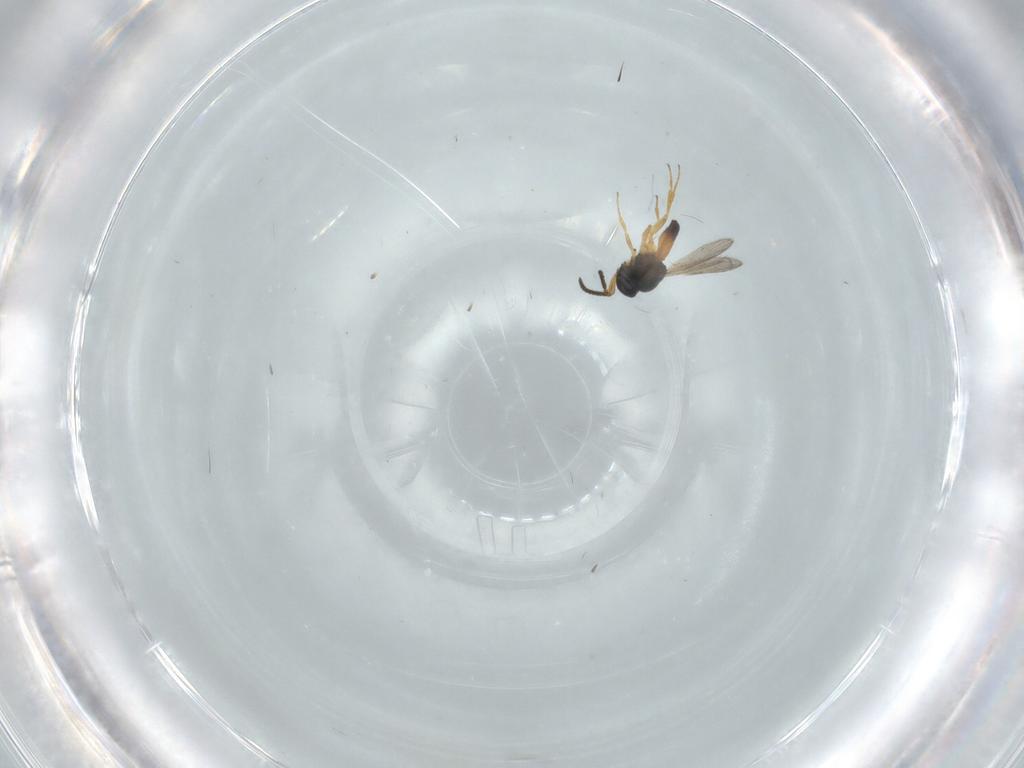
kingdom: Animalia
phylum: Arthropoda
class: Insecta
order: Hymenoptera
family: Scelionidae
